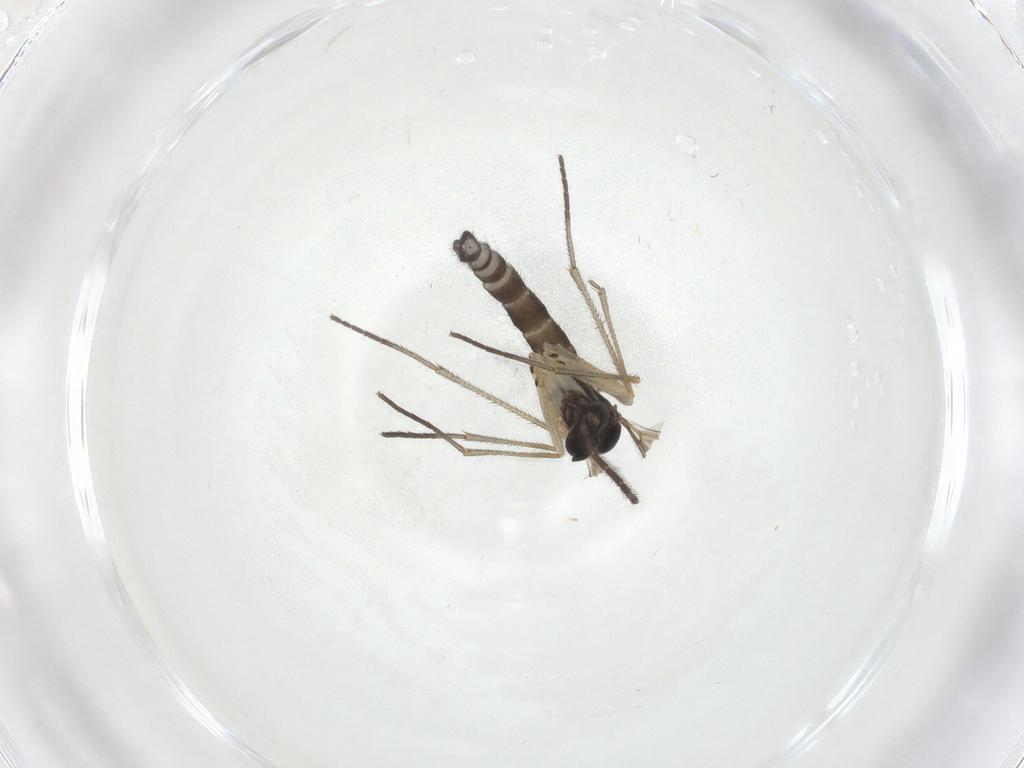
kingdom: Animalia
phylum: Arthropoda
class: Insecta
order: Diptera
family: Sciaridae
